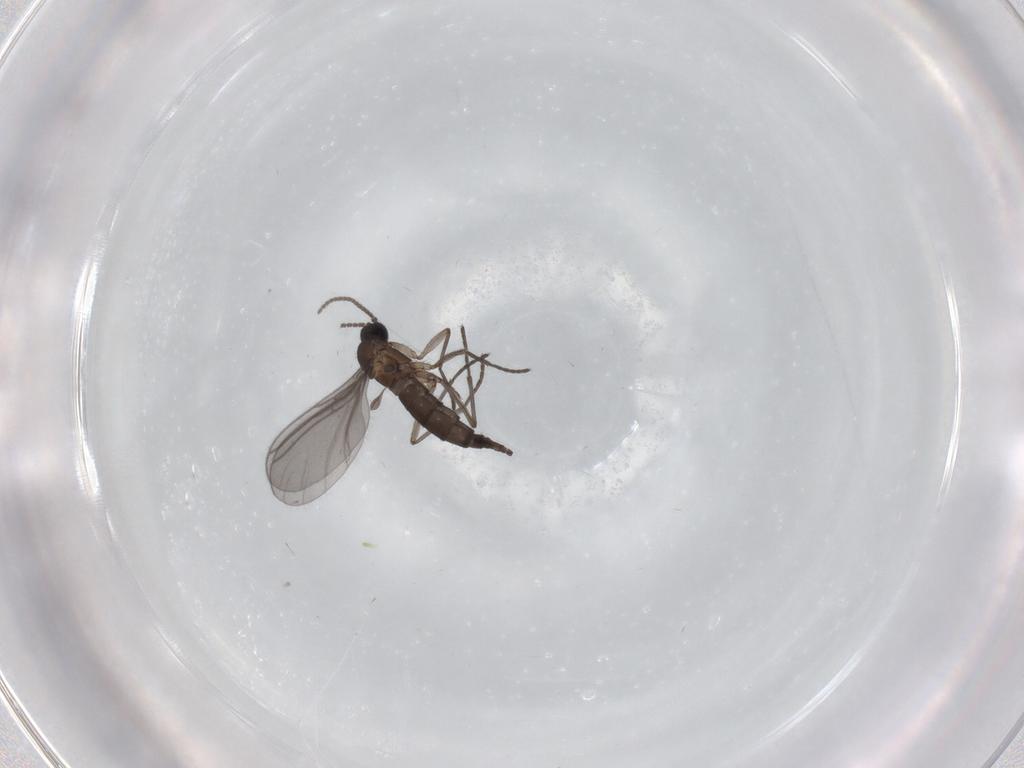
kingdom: Animalia
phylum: Arthropoda
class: Insecta
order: Diptera
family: Sciaridae
